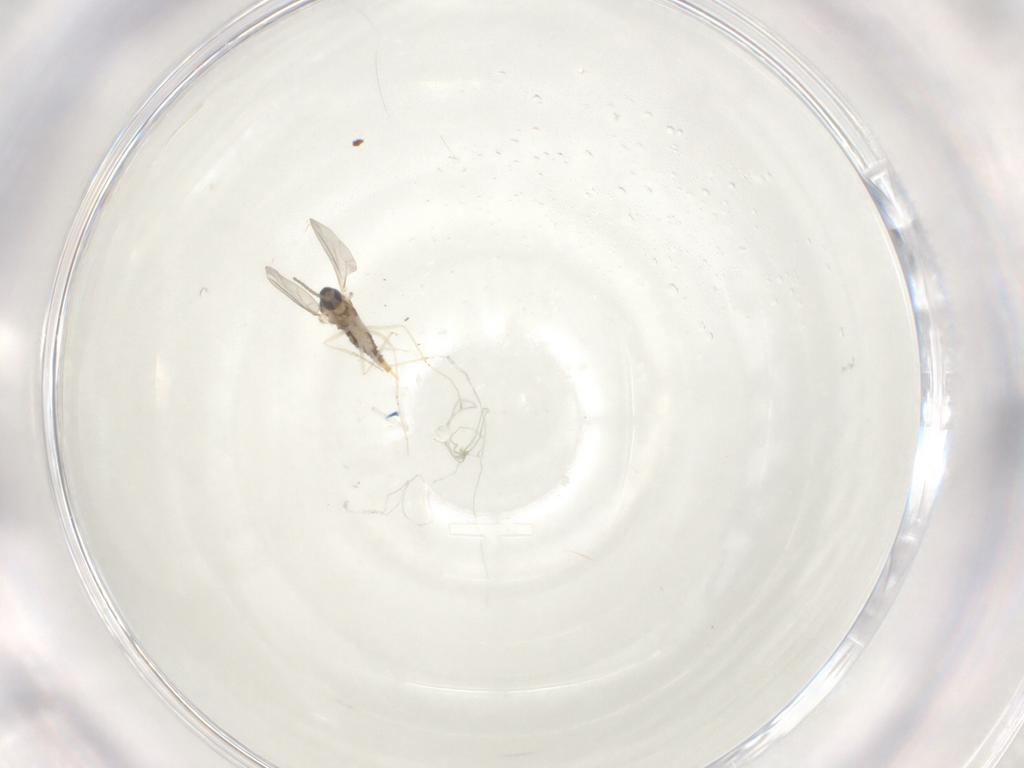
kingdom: Animalia
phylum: Arthropoda
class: Insecta
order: Diptera
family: Cecidomyiidae
